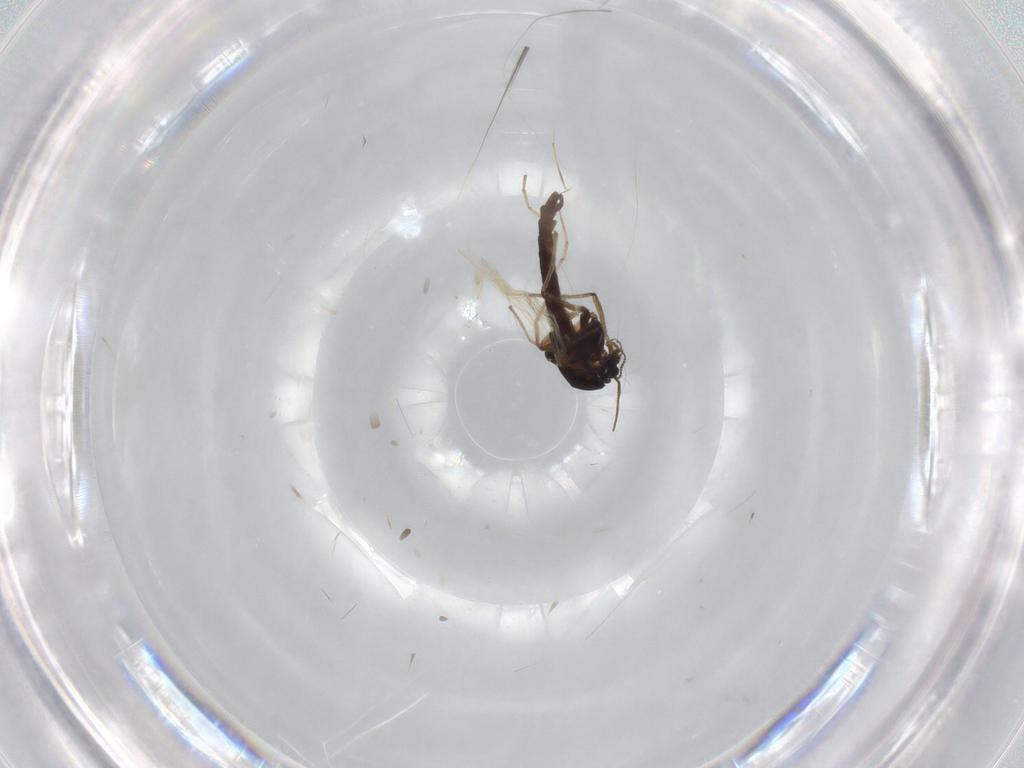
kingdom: Animalia
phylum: Arthropoda
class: Insecta
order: Diptera
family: Chironomidae
